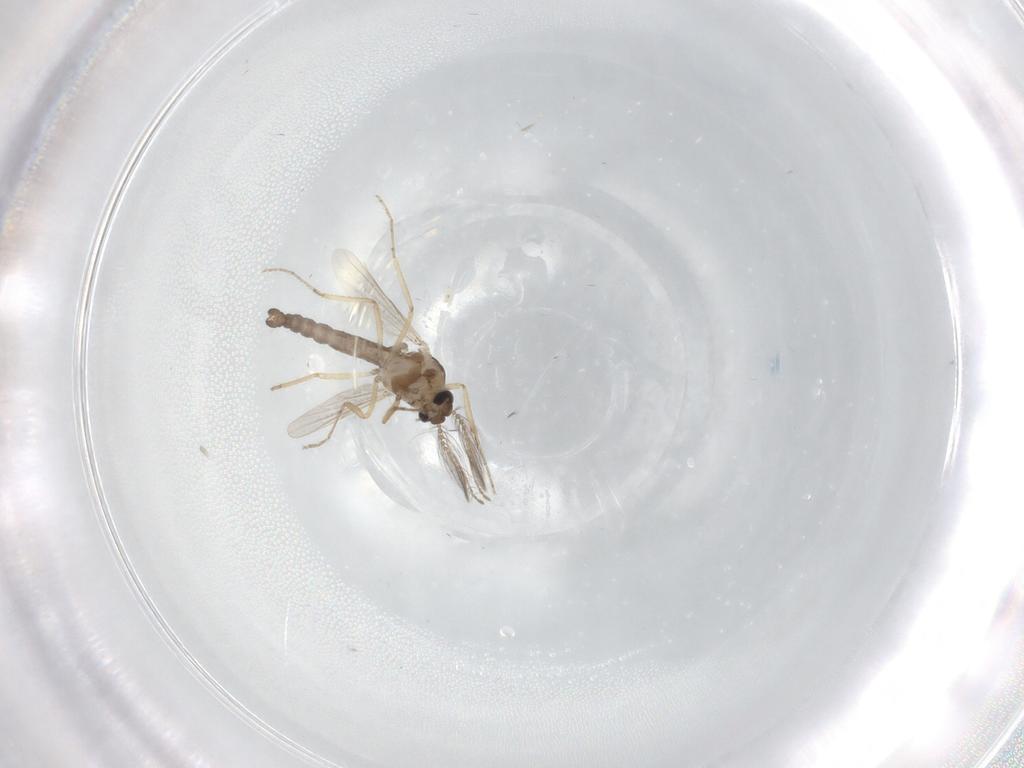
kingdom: Animalia
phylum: Arthropoda
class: Insecta
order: Diptera
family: Ceratopogonidae
